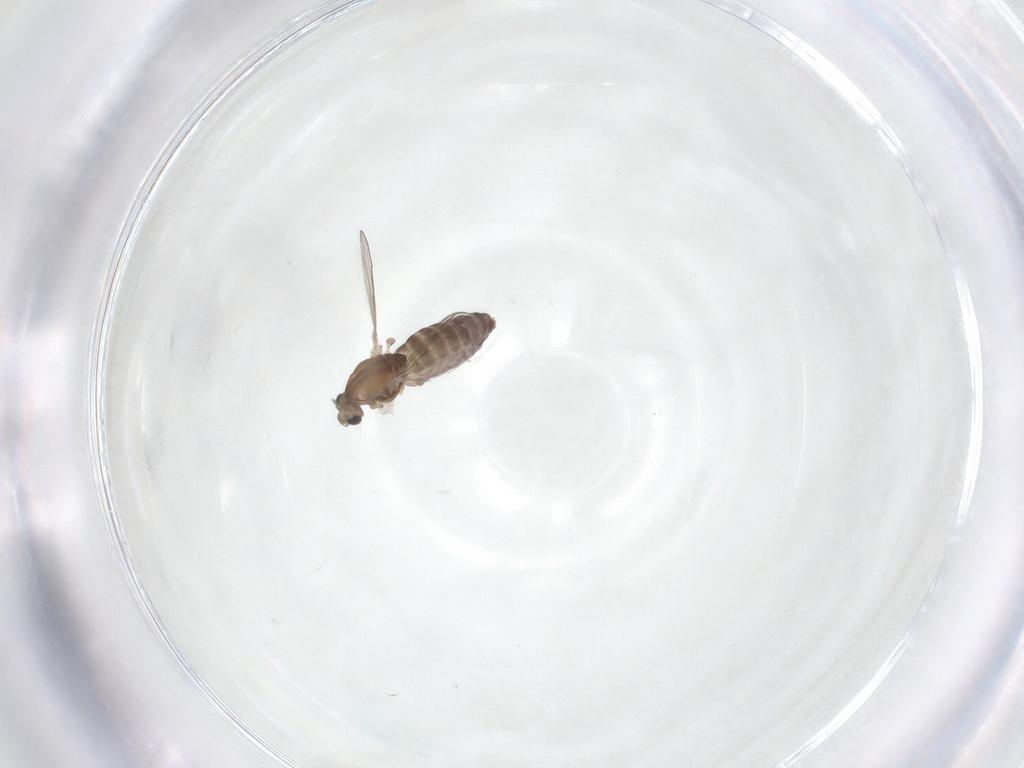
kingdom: Animalia
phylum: Arthropoda
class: Insecta
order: Diptera
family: Chironomidae
